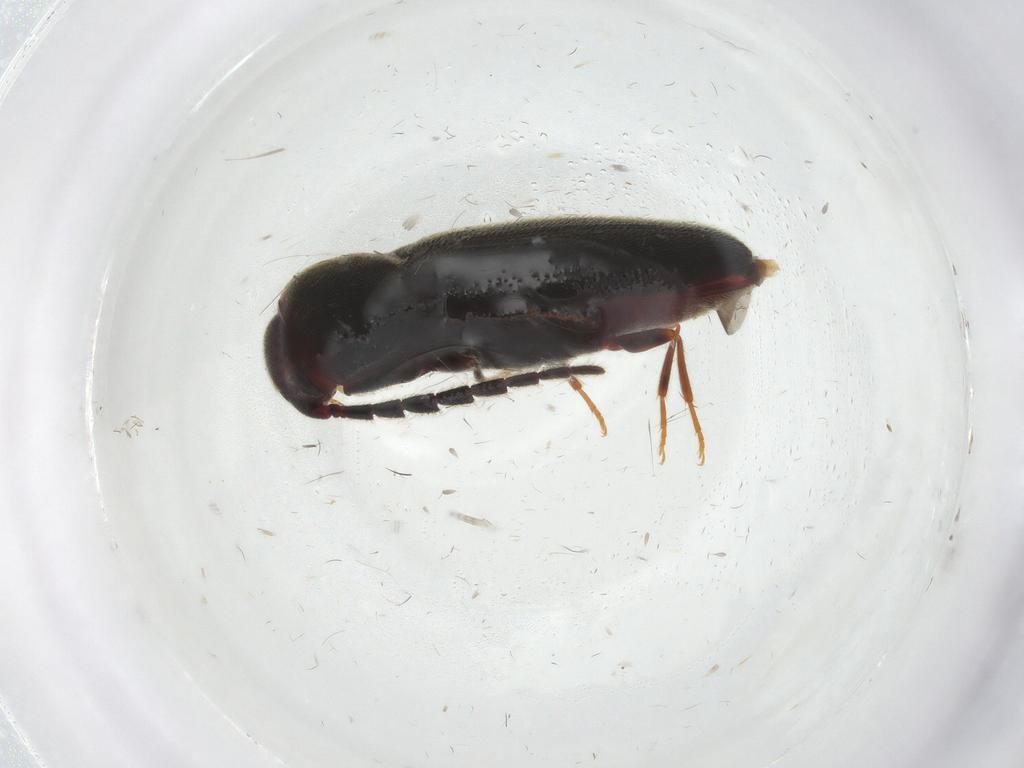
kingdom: Animalia
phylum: Arthropoda
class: Insecta
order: Coleoptera
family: Eucnemidae
